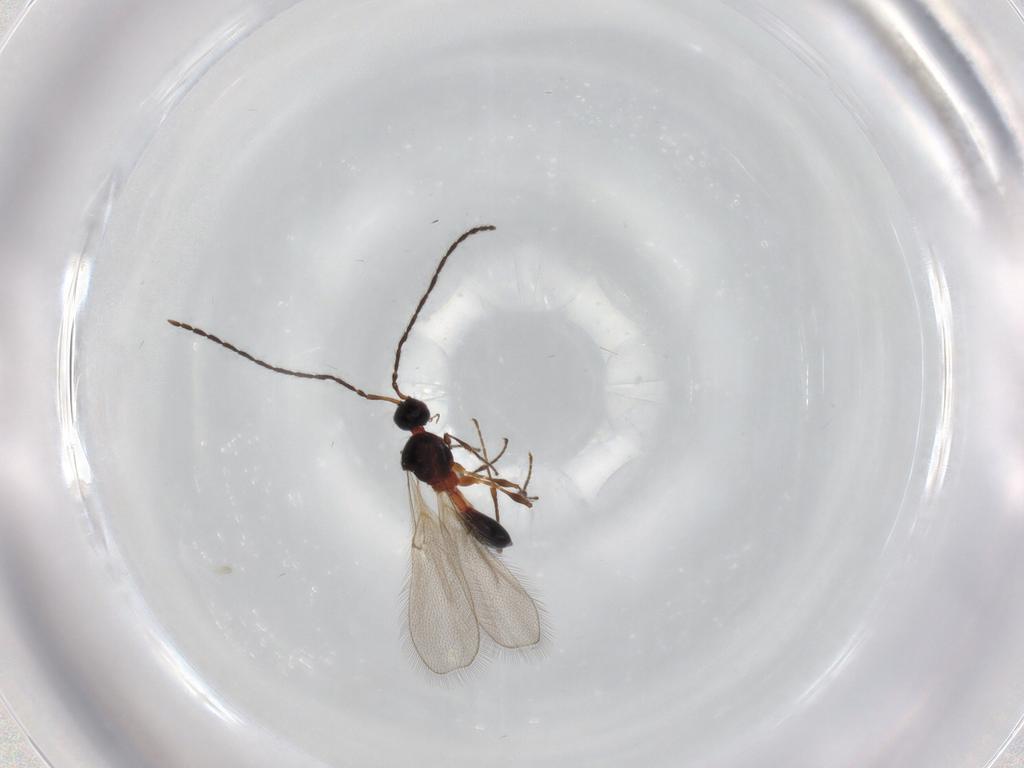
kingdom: Animalia
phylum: Arthropoda
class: Insecta
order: Hymenoptera
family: Diapriidae
